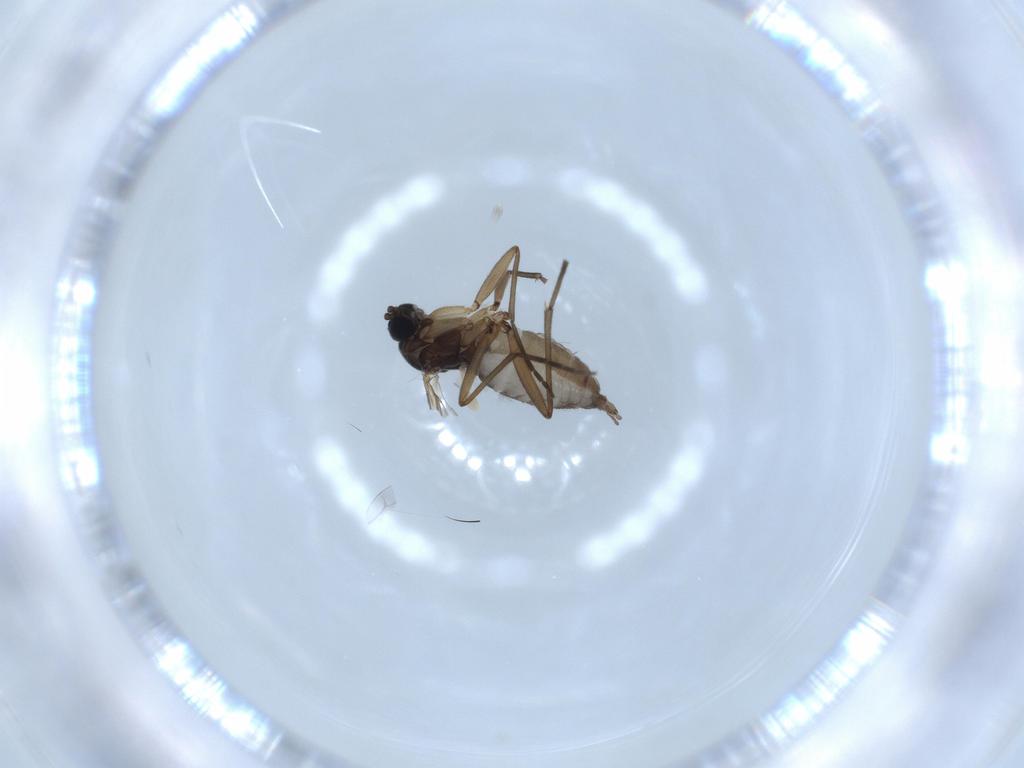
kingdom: Animalia
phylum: Arthropoda
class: Insecta
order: Diptera
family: Sciaridae
